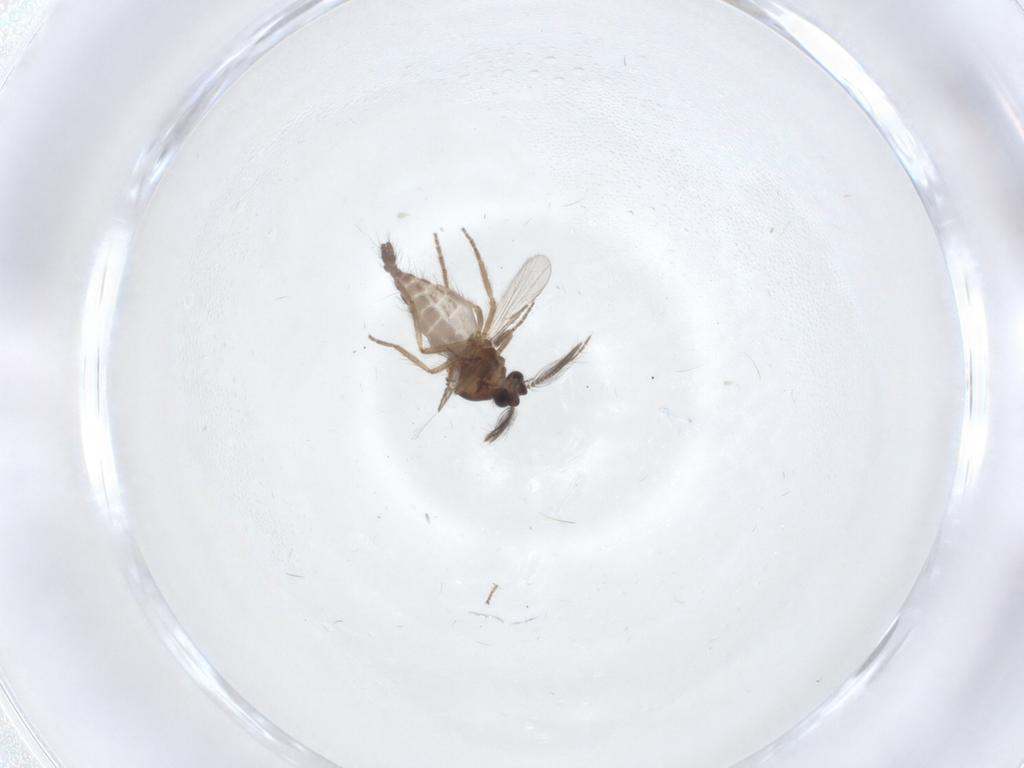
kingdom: Animalia
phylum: Arthropoda
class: Insecta
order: Diptera
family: Ceratopogonidae
